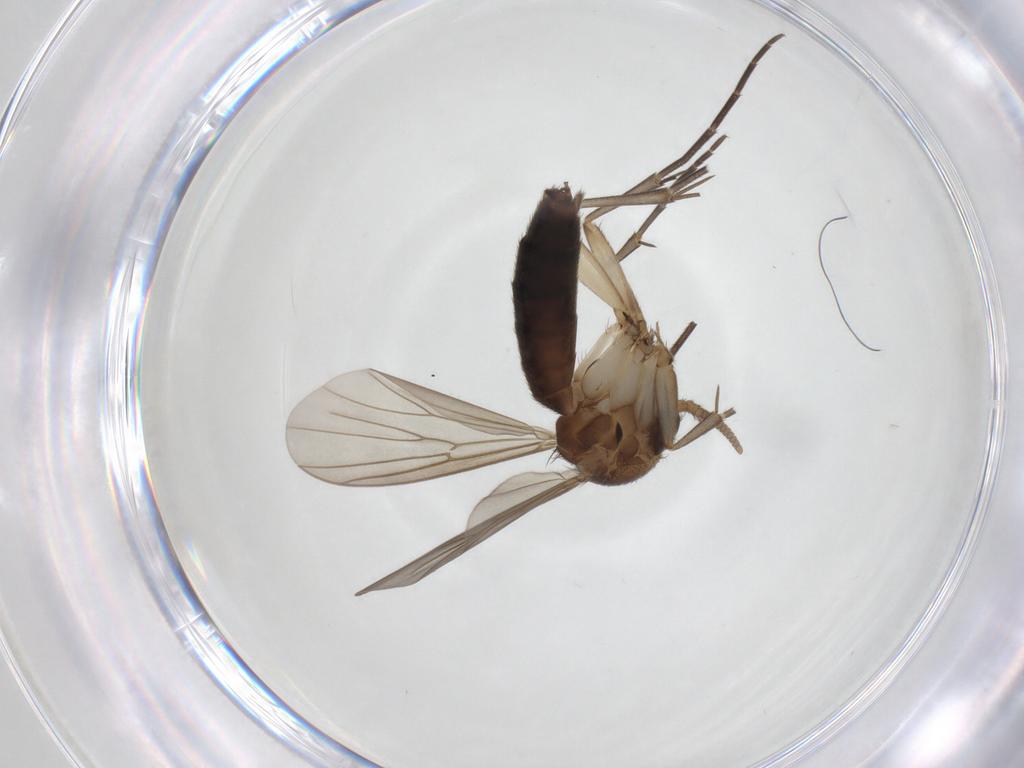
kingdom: Animalia
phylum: Arthropoda
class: Insecta
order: Diptera
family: Mycetophilidae
